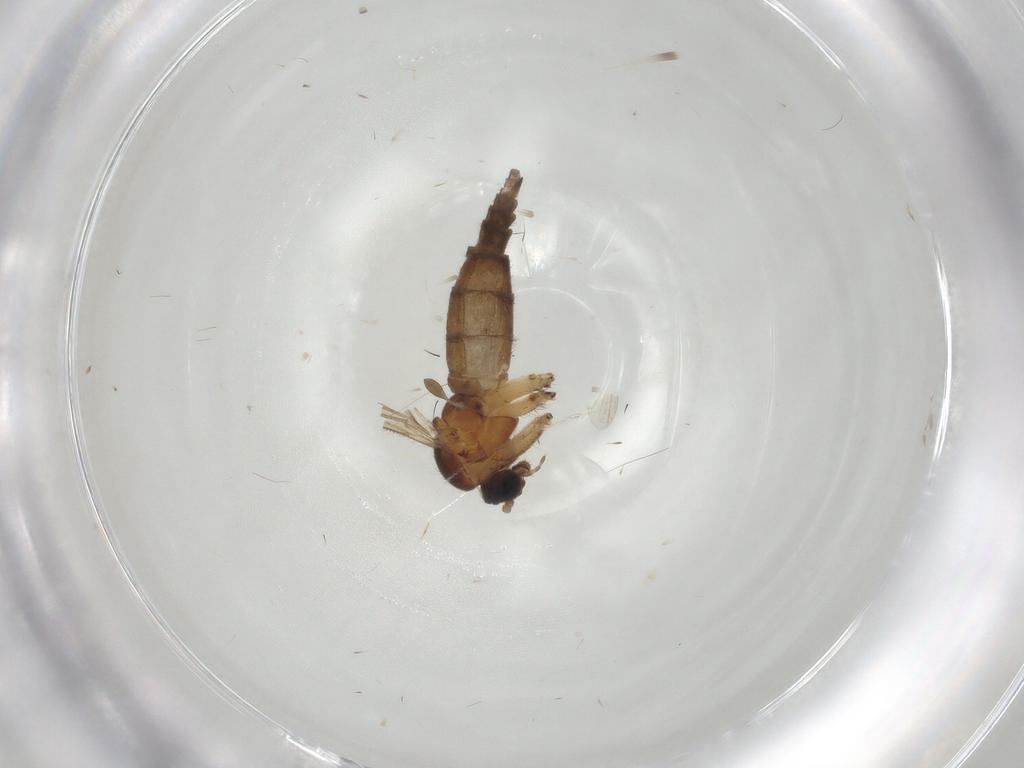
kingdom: Animalia
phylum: Arthropoda
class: Insecta
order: Diptera
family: Sciaridae
